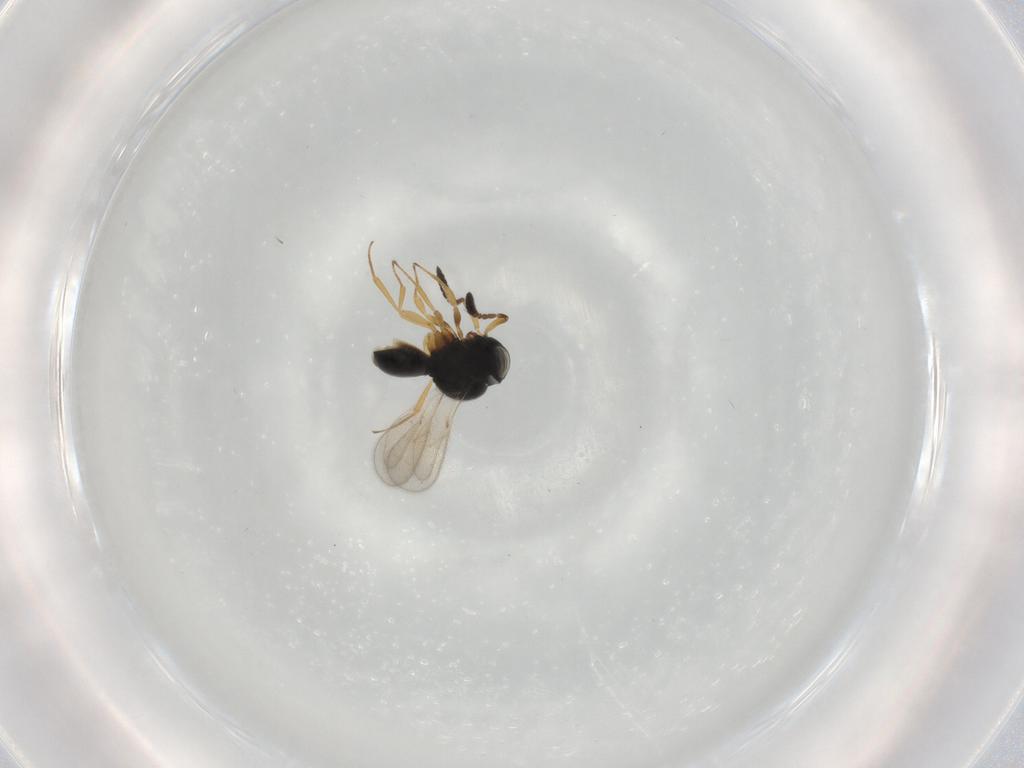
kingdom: Animalia
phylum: Arthropoda
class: Insecta
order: Hymenoptera
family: Scelionidae
